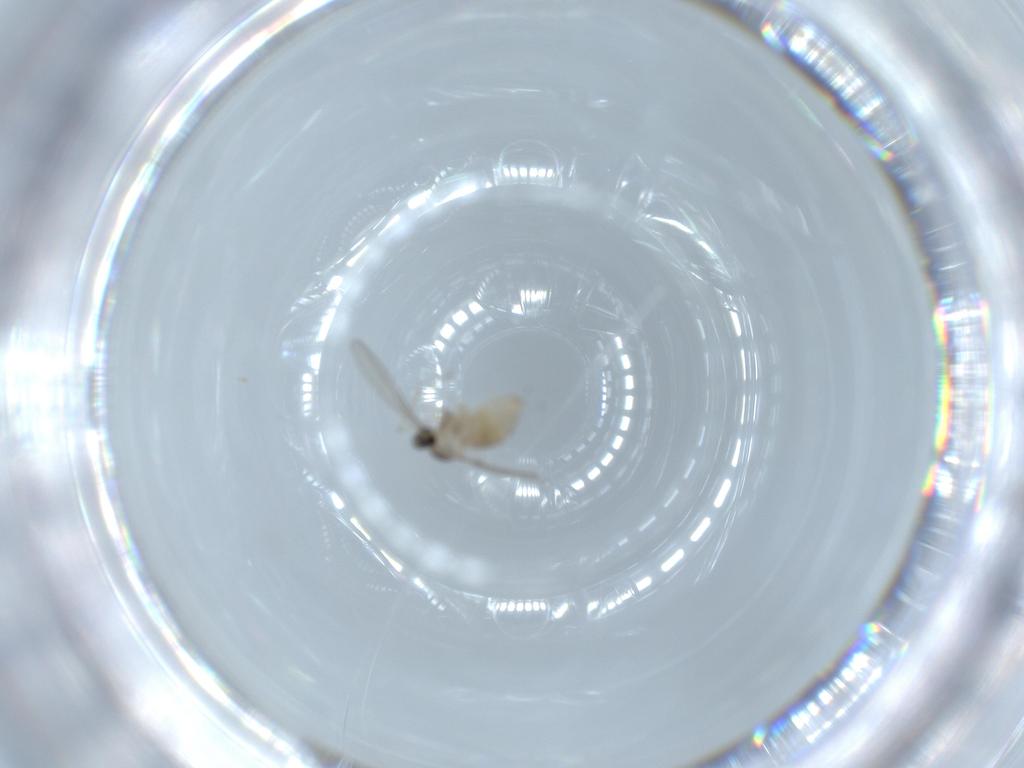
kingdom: Animalia
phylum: Arthropoda
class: Insecta
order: Diptera
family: Cecidomyiidae
